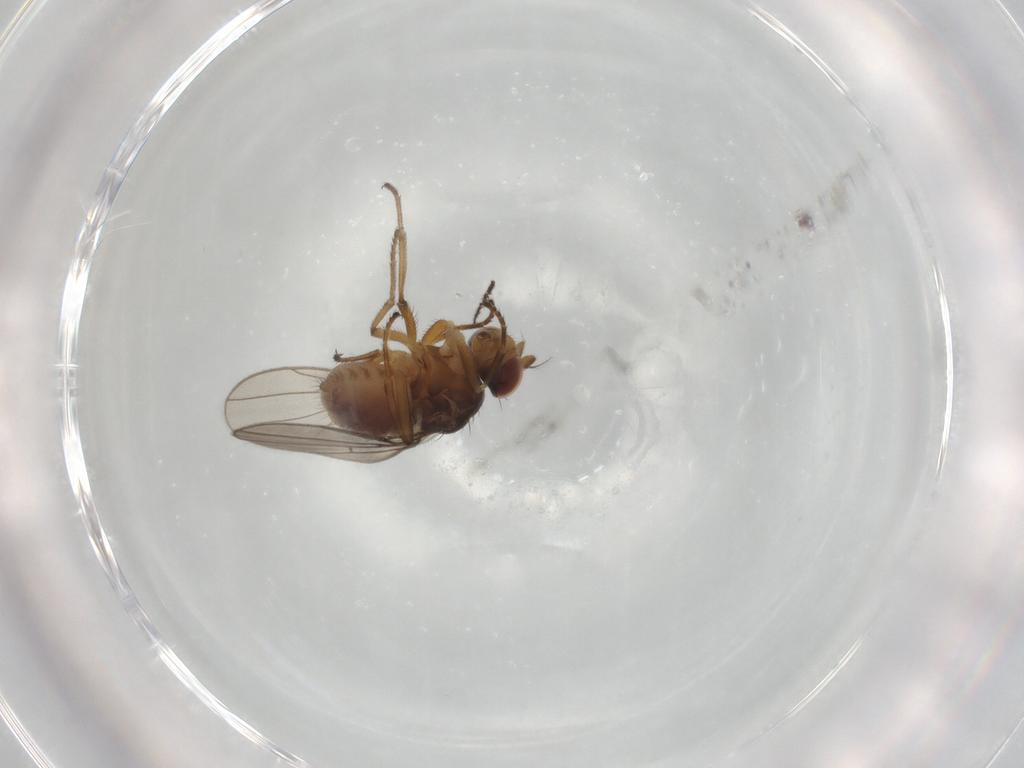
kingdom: Animalia
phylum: Arthropoda
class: Insecta
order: Diptera
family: Ephydridae
